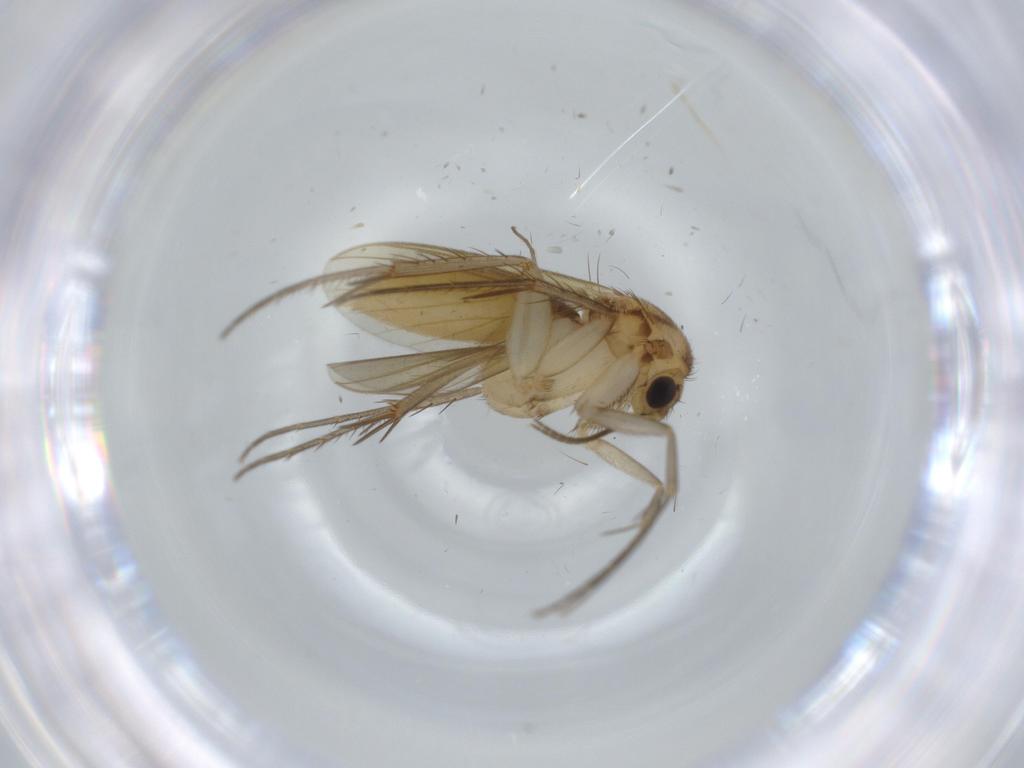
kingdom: Animalia
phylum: Arthropoda
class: Insecta
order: Diptera
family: Mycetophilidae
